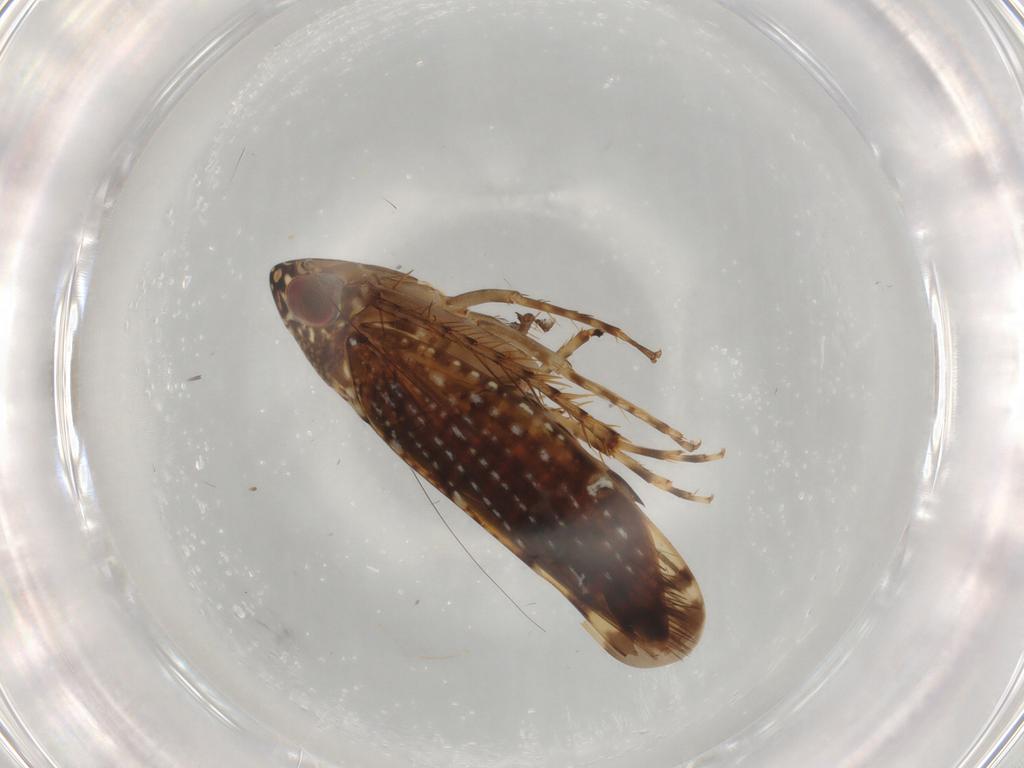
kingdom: Animalia
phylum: Arthropoda
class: Insecta
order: Hemiptera
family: Cicadellidae
